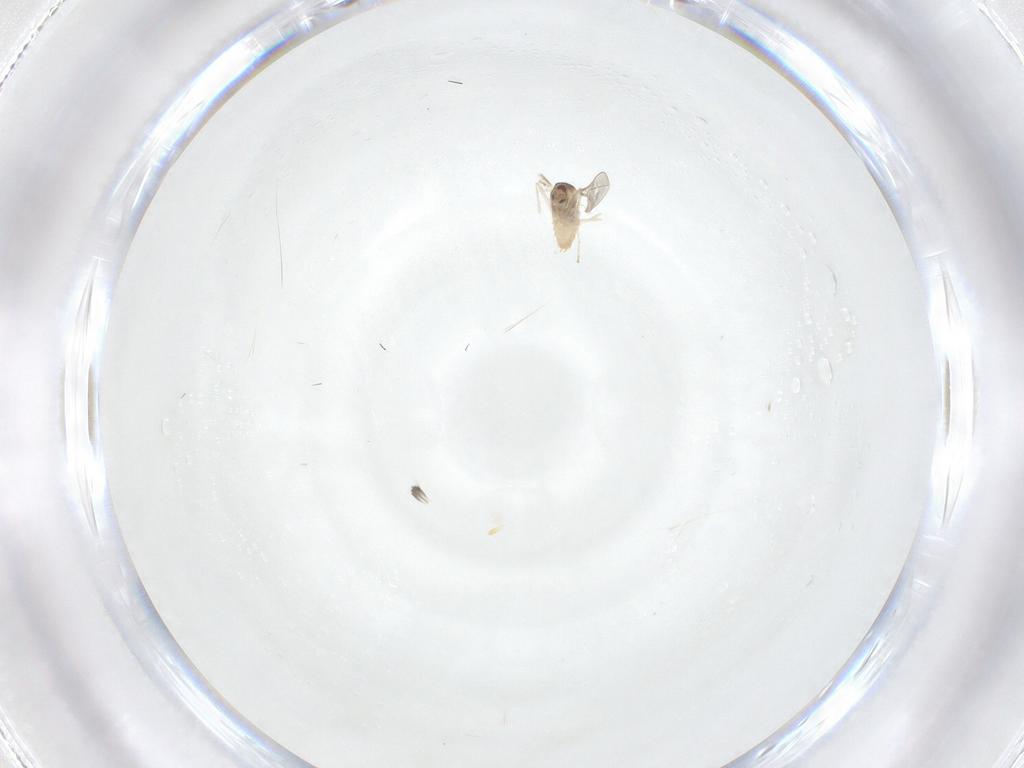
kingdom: Animalia
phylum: Arthropoda
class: Insecta
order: Diptera
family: Cecidomyiidae
